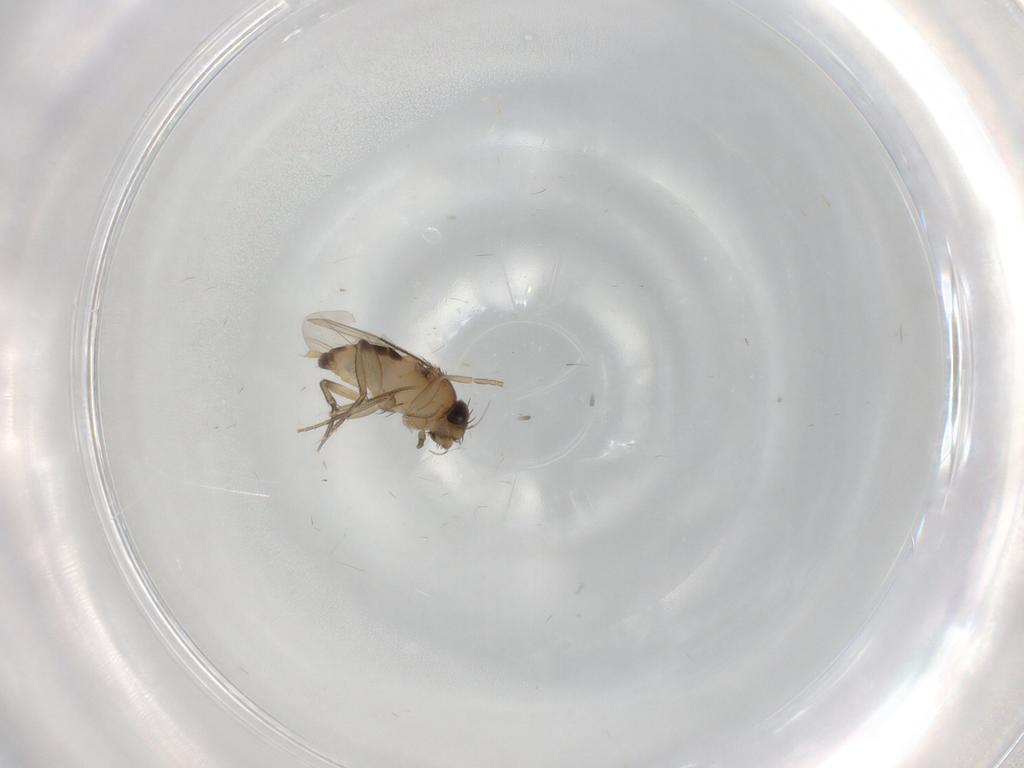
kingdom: Animalia
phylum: Arthropoda
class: Insecta
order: Diptera
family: Phoridae
